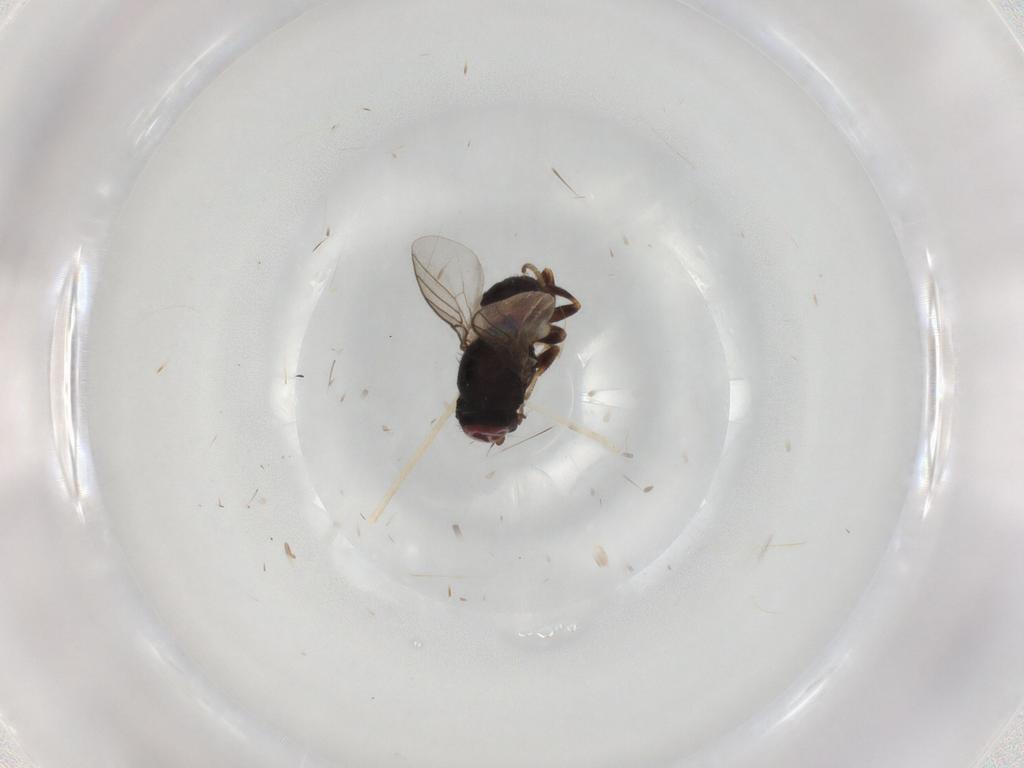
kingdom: Animalia
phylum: Arthropoda
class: Insecta
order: Diptera
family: Chloropidae
